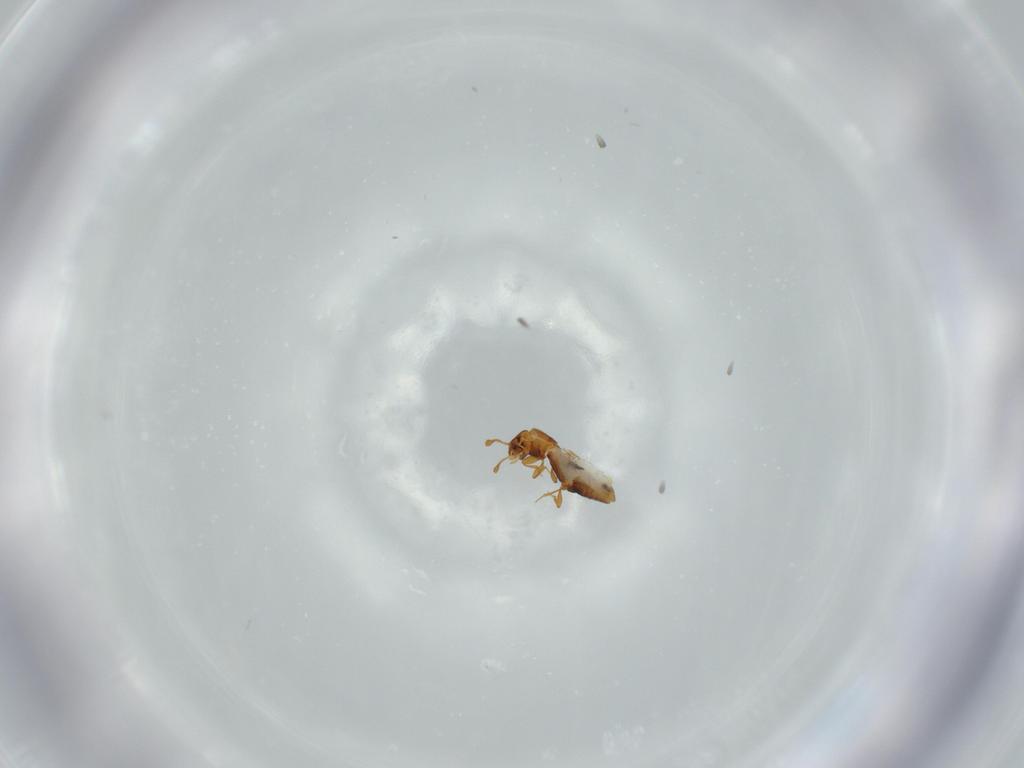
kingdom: Animalia
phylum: Arthropoda
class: Insecta
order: Coleoptera
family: Endomychidae
